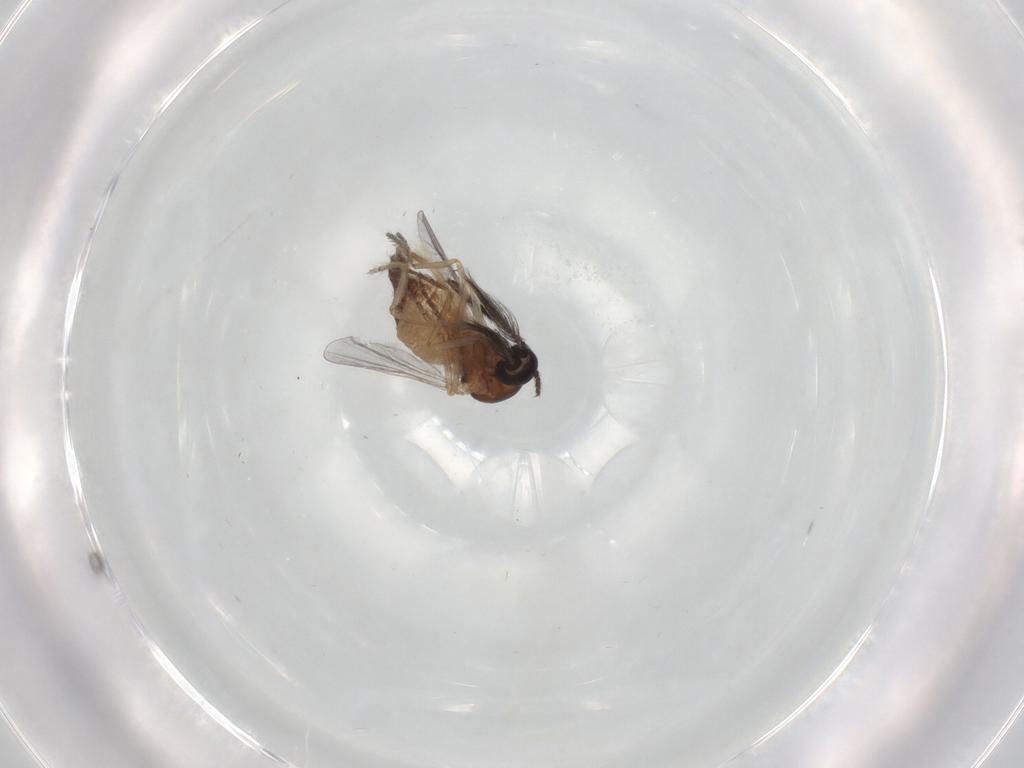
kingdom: Animalia
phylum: Arthropoda
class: Insecta
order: Diptera
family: Ceratopogonidae
